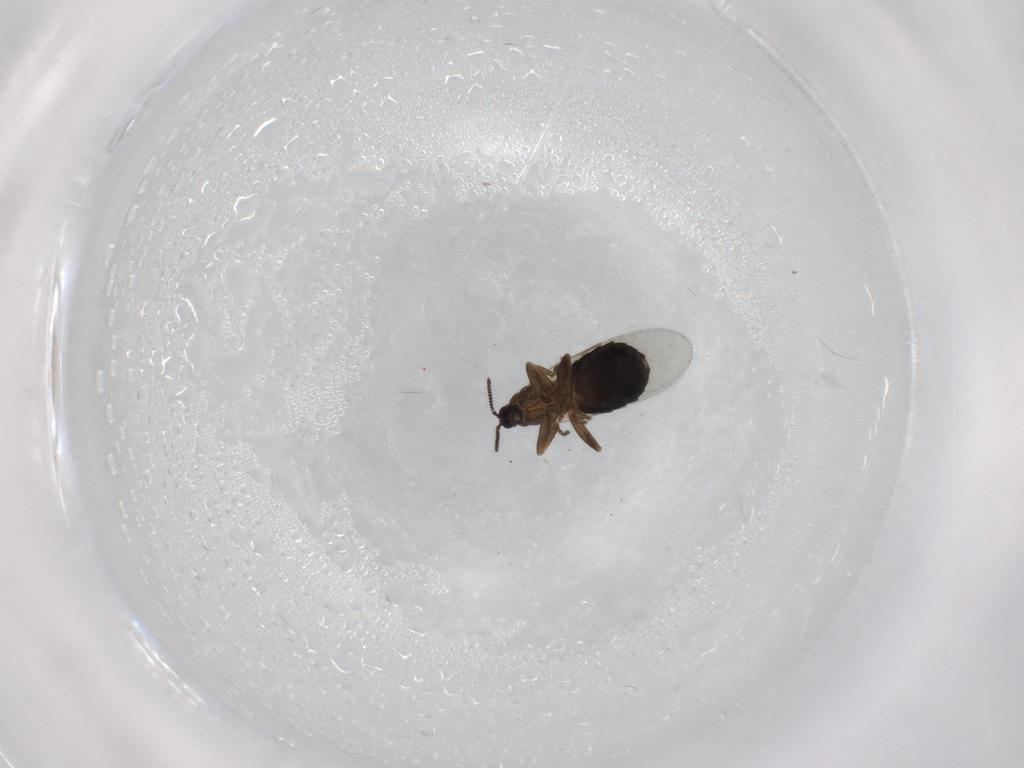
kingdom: Animalia
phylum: Arthropoda
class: Insecta
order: Diptera
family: Scatopsidae
